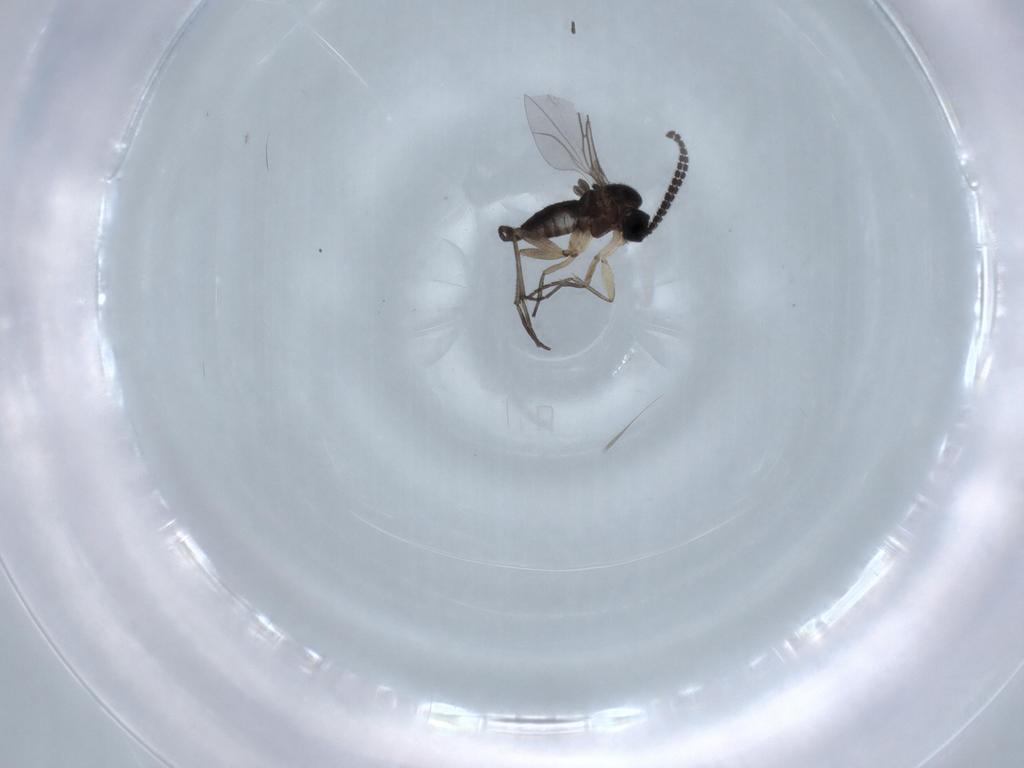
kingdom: Animalia
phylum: Arthropoda
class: Insecta
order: Diptera
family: Sciaridae
